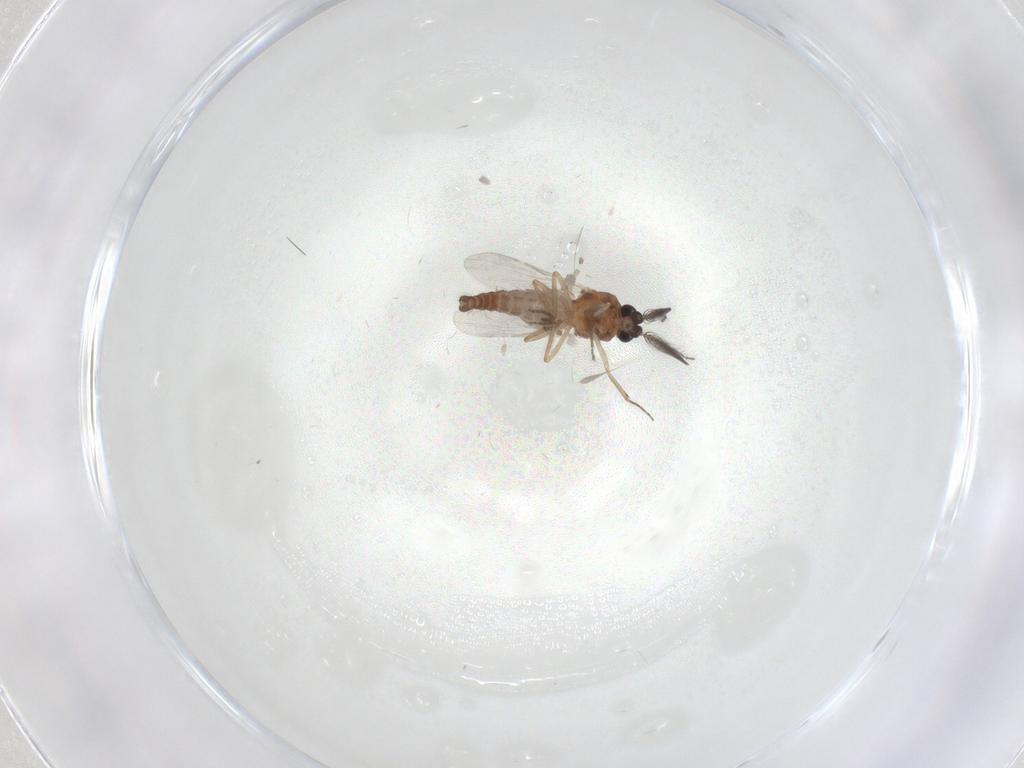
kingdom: Animalia
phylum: Arthropoda
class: Insecta
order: Diptera
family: Ceratopogonidae
